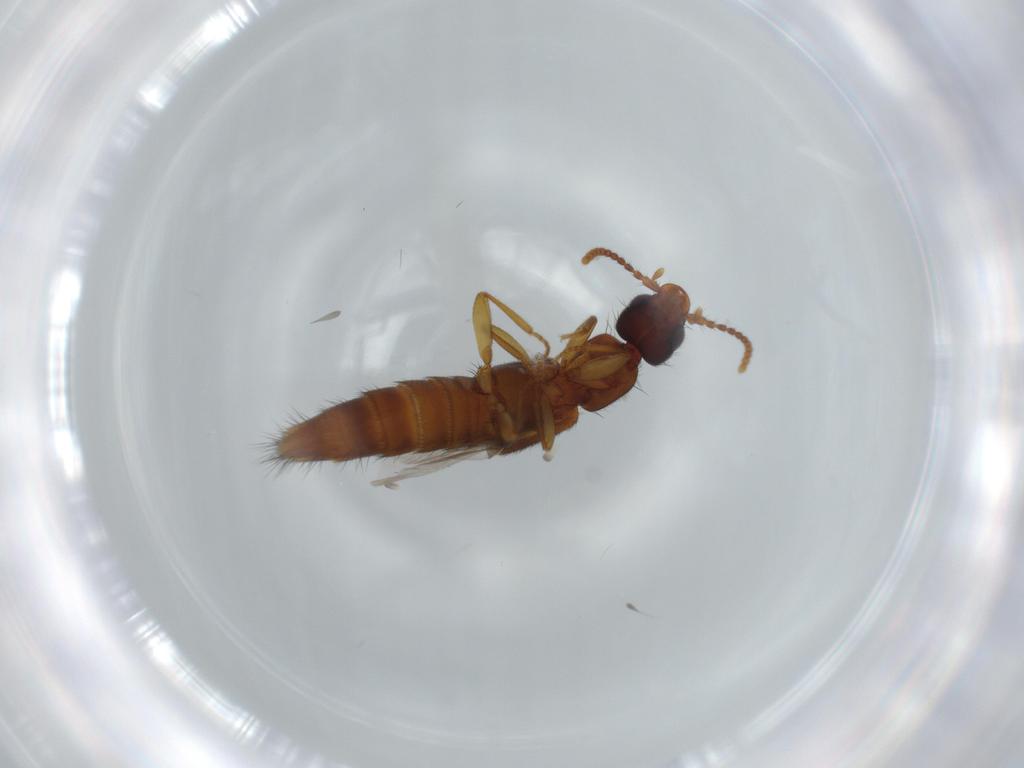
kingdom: Animalia
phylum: Arthropoda
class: Insecta
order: Coleoptera
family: Staphylinidae
